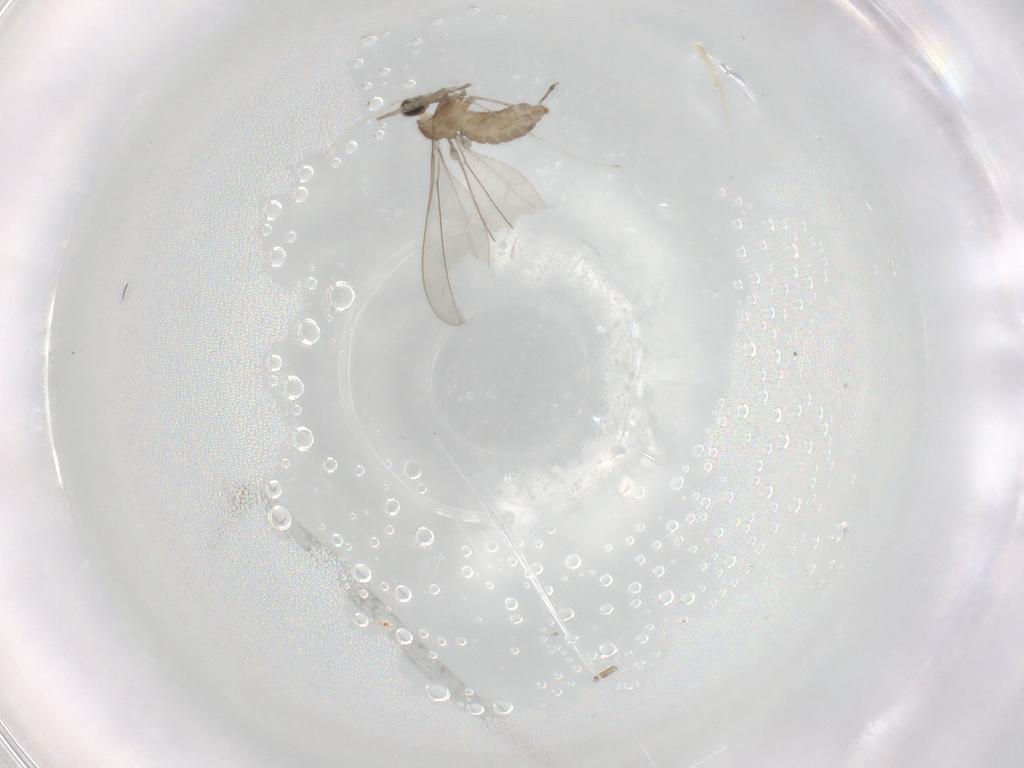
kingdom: Animalia
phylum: Arthropoda
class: Insecta
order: Diptera
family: Cecidomyiidae
